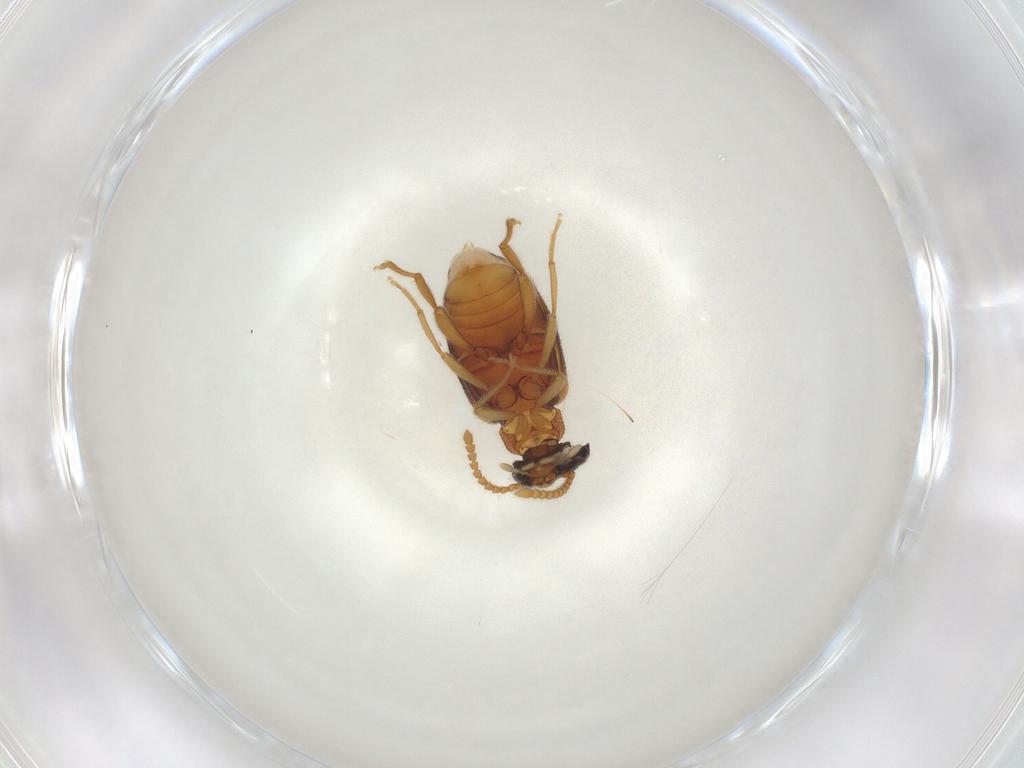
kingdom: Animalia
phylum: Arthropoda
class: Insecta
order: Coleoptera
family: Aderidae
